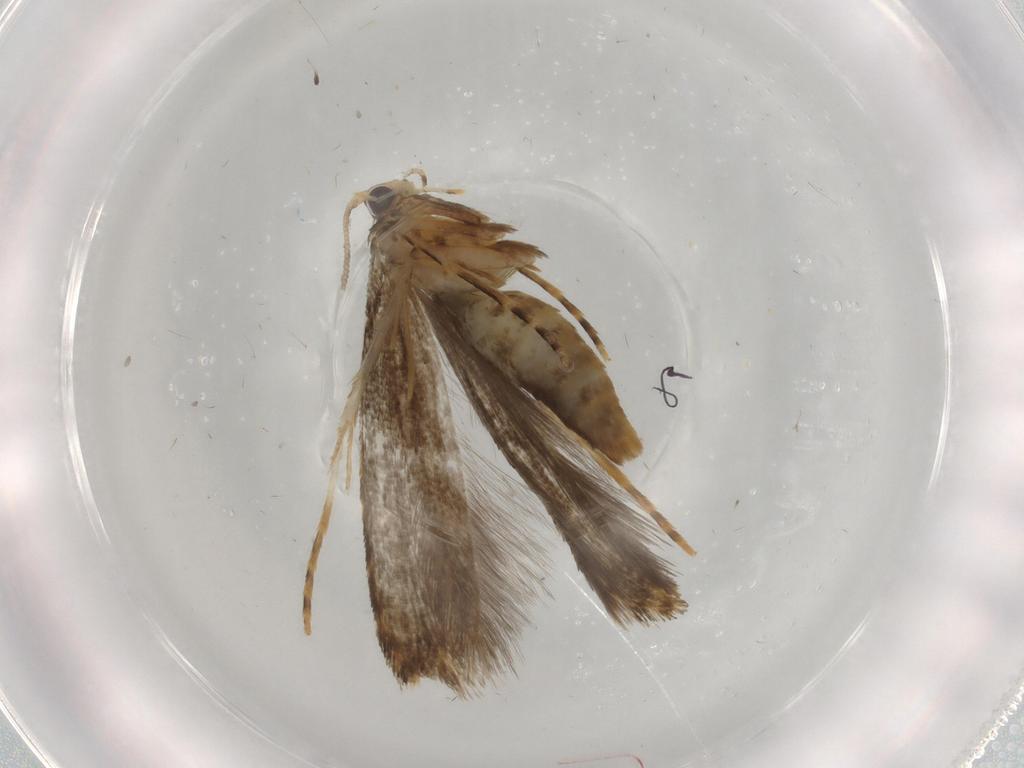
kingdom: Animalia
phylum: Arthropoda
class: Insecta
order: Lepidoptera
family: Tineidae
